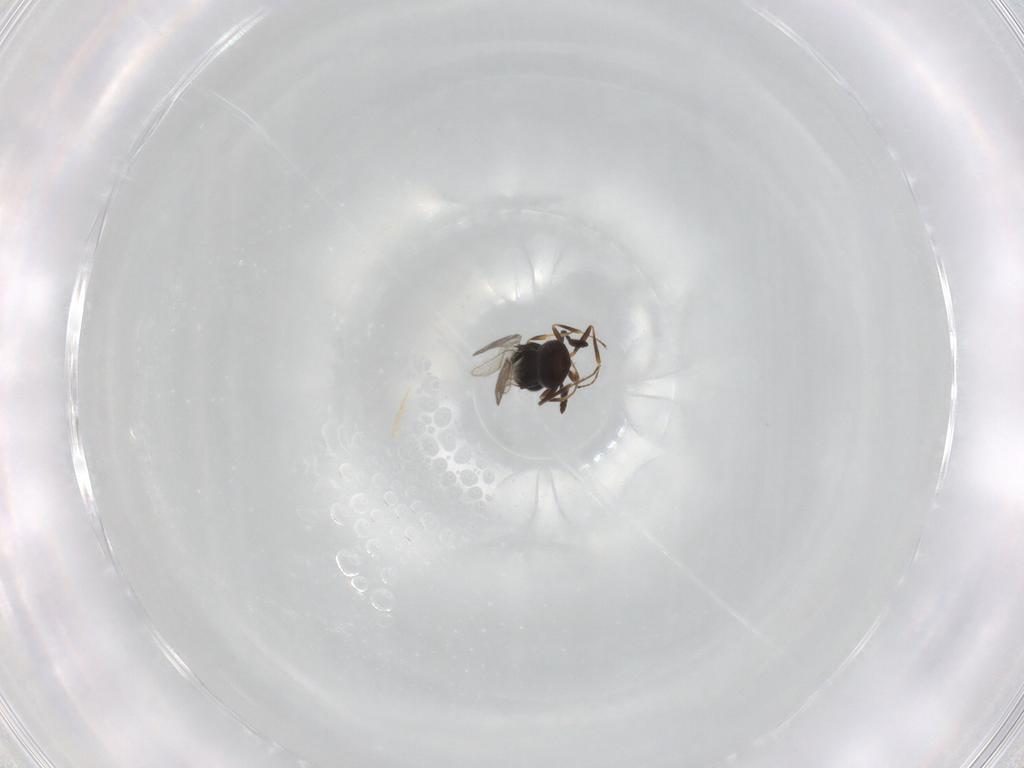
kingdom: Animalia
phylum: Arthropoda
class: Insecta
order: Hymenoptera
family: Scelionidae
